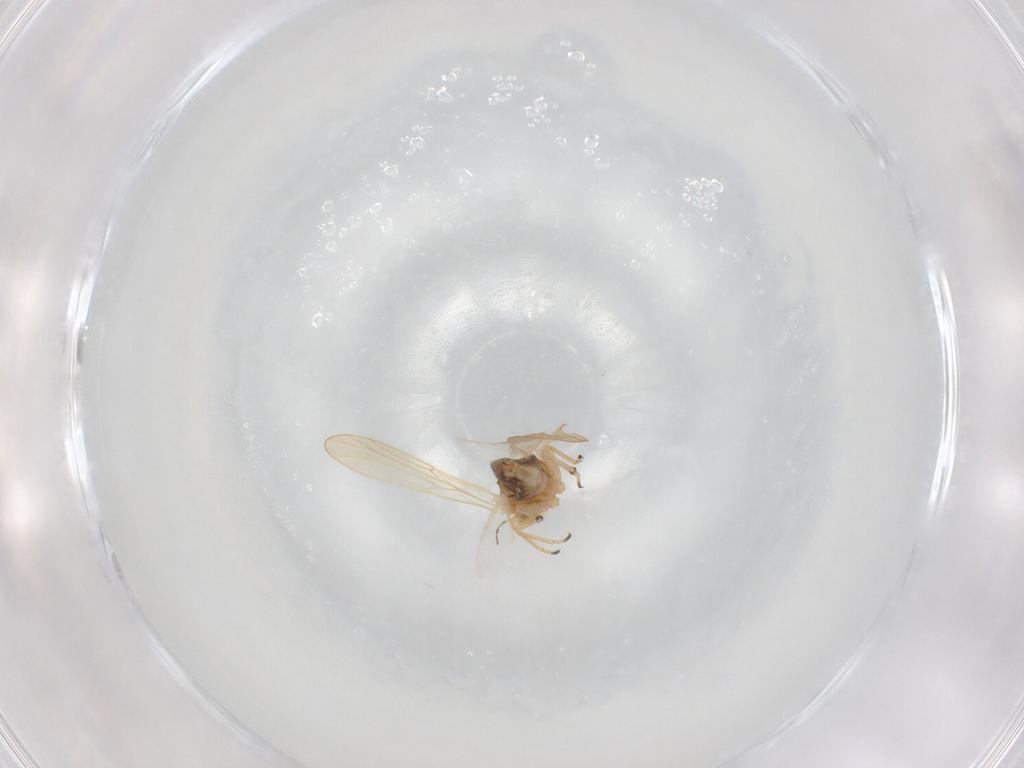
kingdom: Animalia
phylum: Arthropoda
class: Insecta
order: Hemiptera
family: Psylloidea_incertae_sedis
